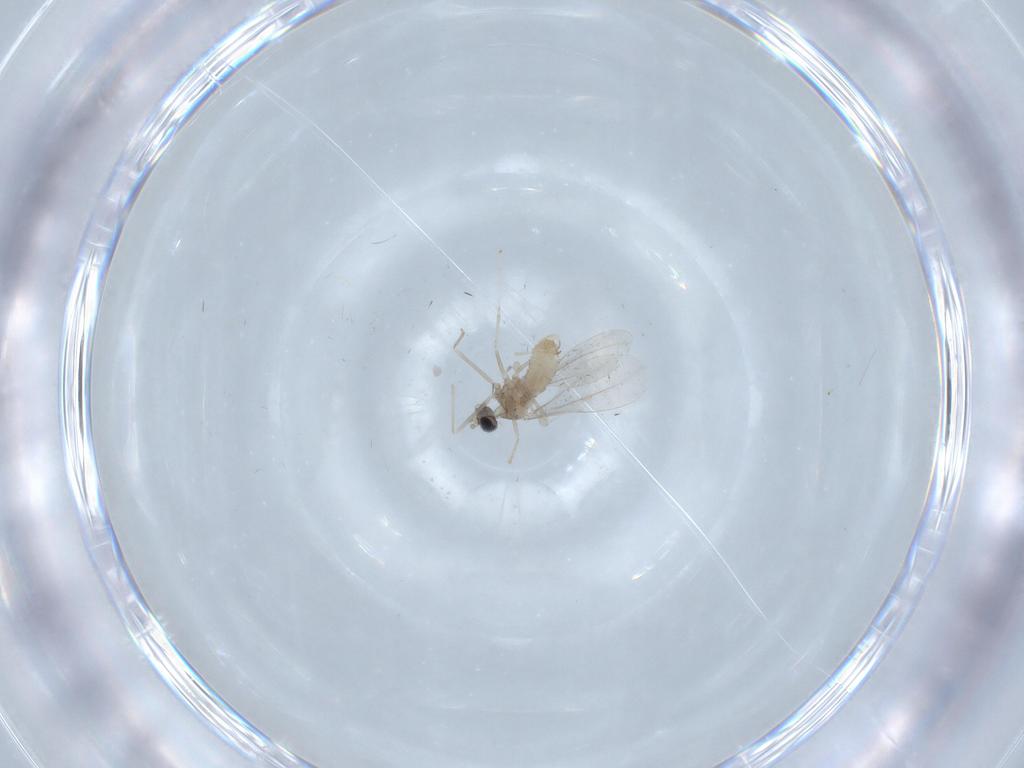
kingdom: Animalia
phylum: Arthropoda
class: Insecta
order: Diptera
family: Cecidomyiidae
